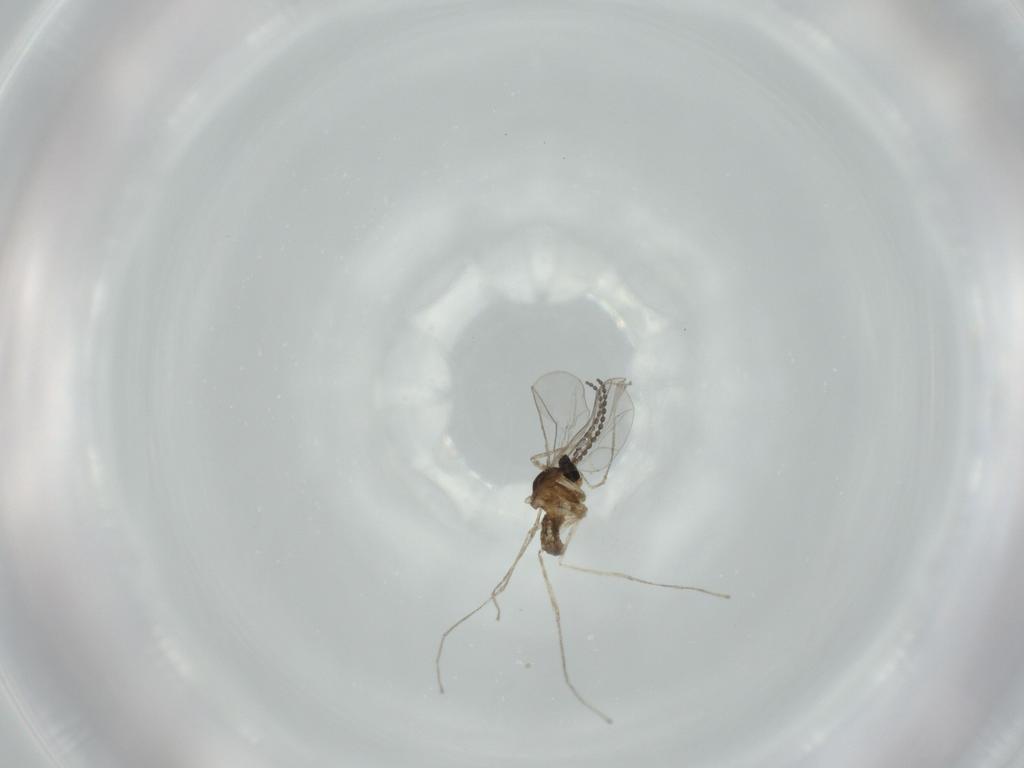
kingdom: Animalia
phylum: Arthropoda
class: Insecta
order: Diptera
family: Cecidomyiidae
